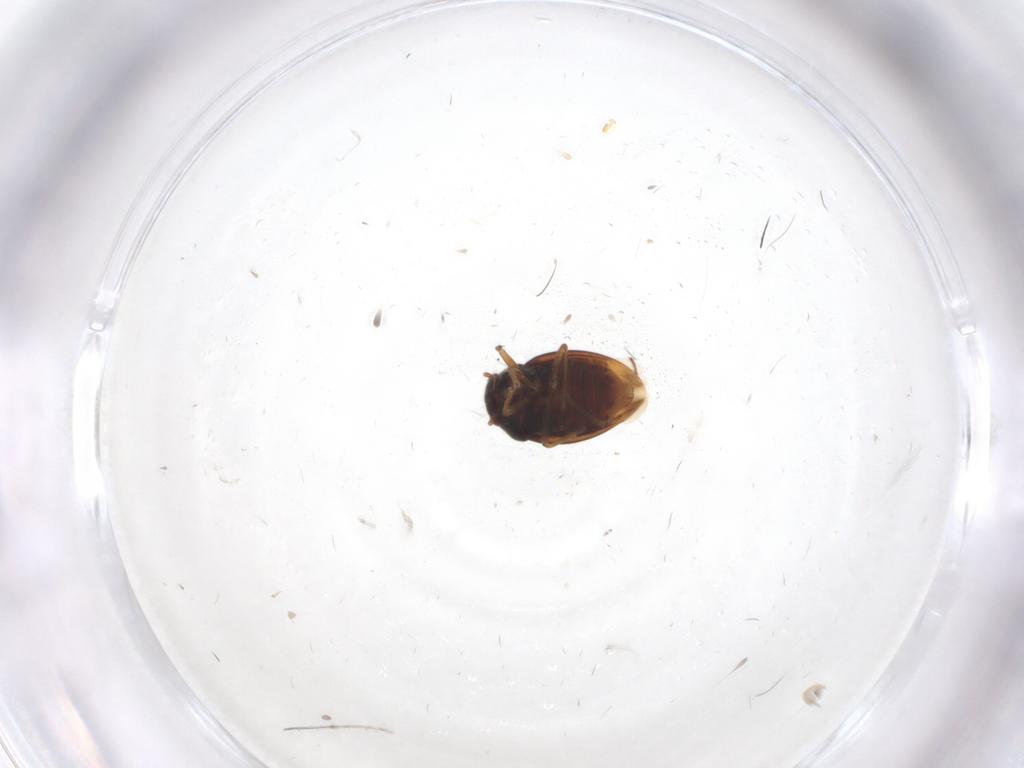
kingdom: Animalia
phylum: Arthropoda
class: Insecta
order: Hemiptera
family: Schizopteridae
